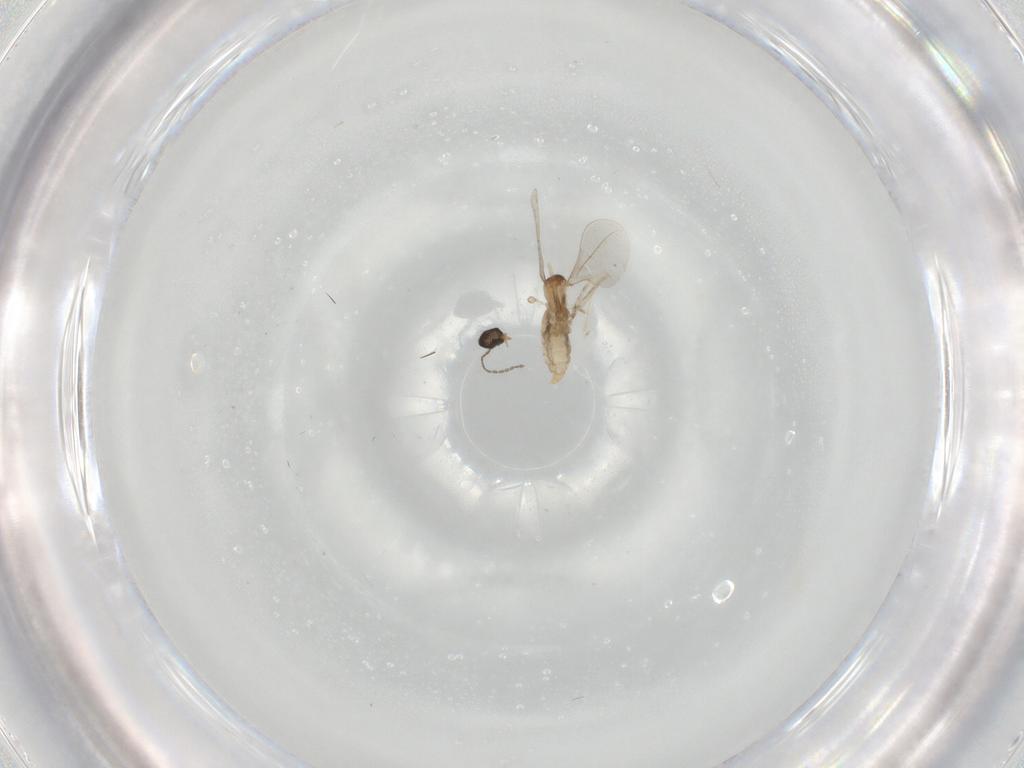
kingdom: Animalia
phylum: Arthropoda
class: Insecta
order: Diptera
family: Cecidomyiidae
